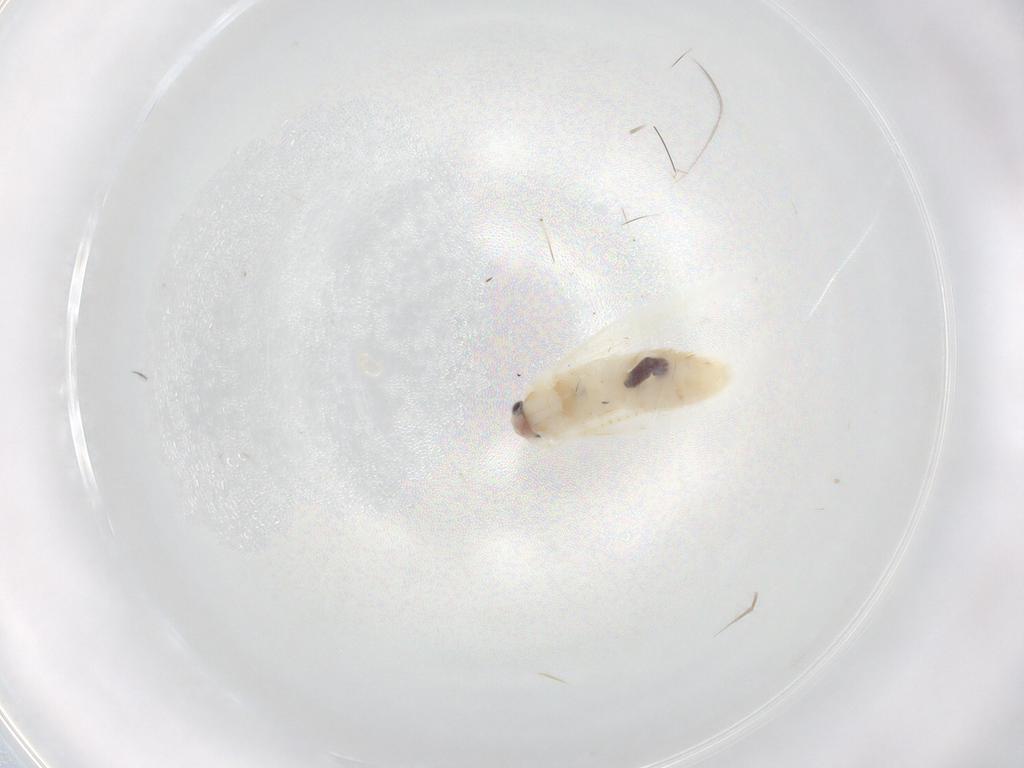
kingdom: Animalia
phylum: Arthropoda
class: Insecta
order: Lepidoptera
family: Bucculatricidae
